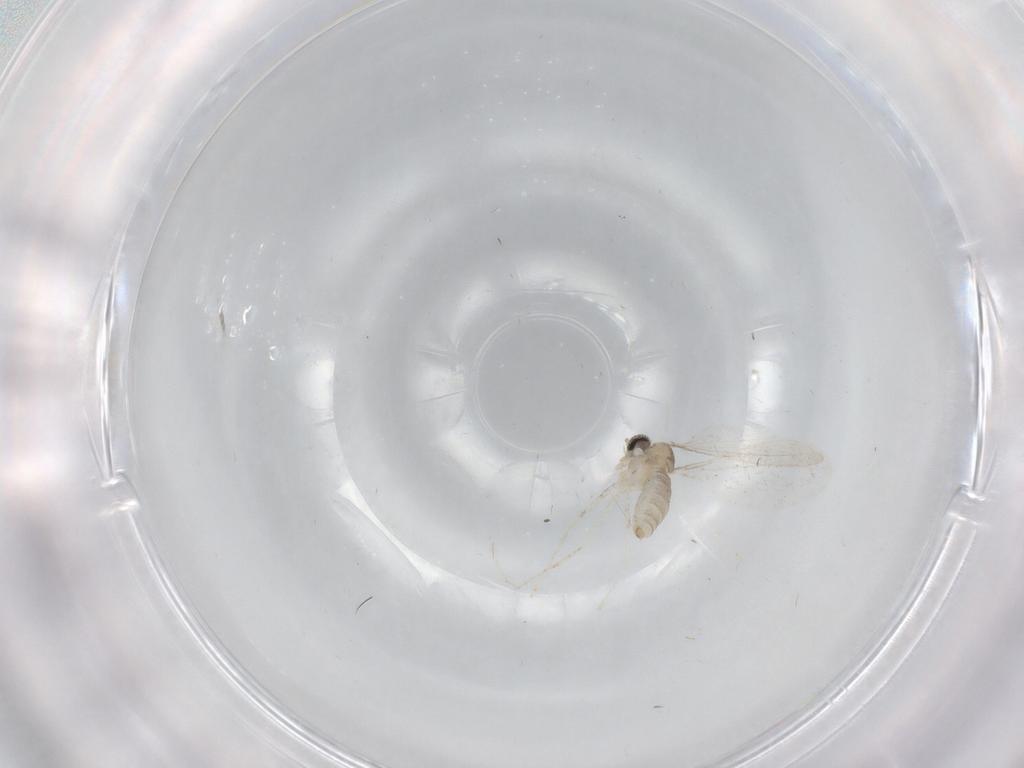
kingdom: Animalia
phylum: Arthropoda
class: Insecta
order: Diptera
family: Cecidomyiidae
